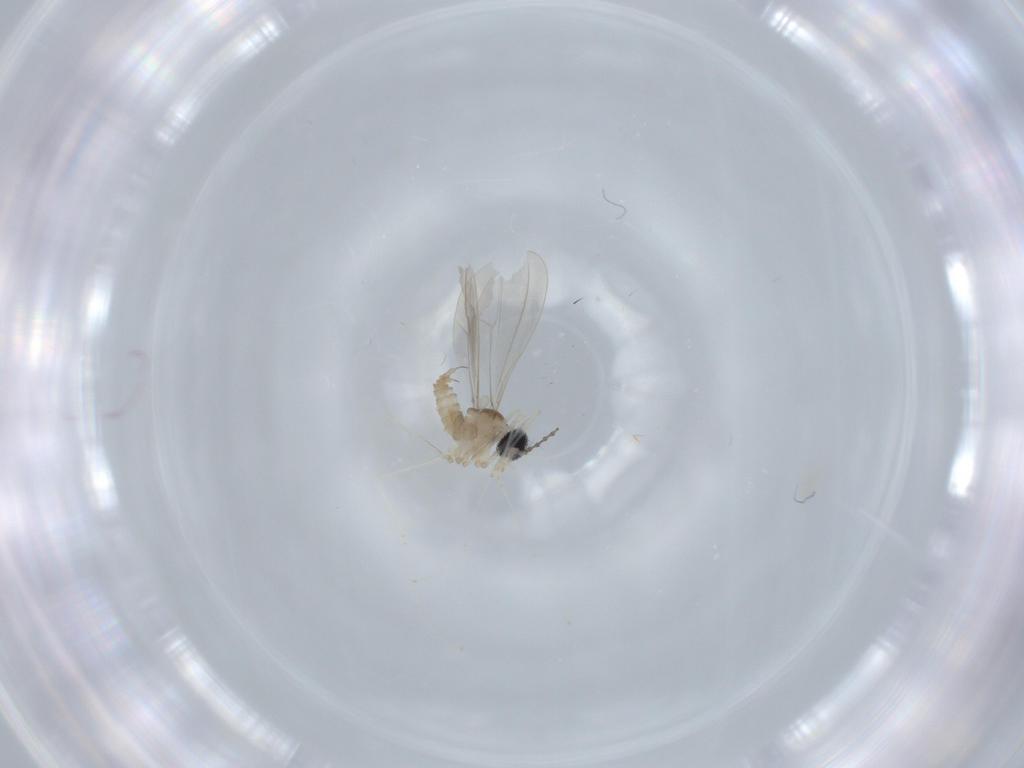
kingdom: Animalia
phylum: Arthropoda
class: Insecta
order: Diptera
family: Cecidomyiidae
